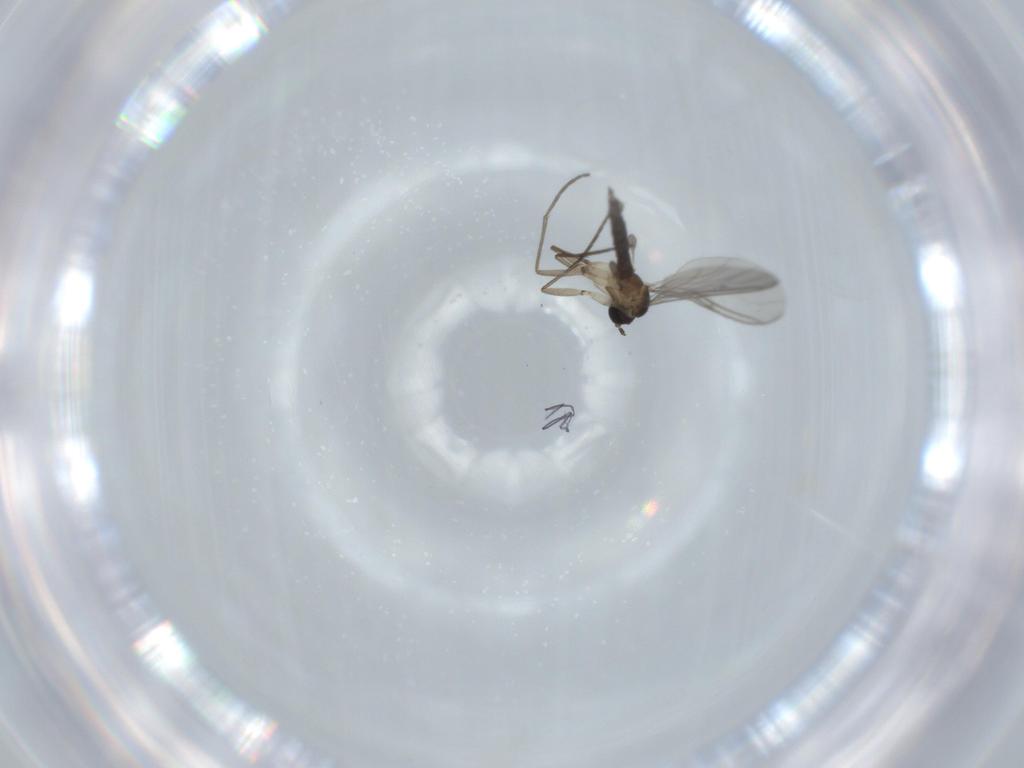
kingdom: Animalia
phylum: Arthropoda
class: Insecta
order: Diptera
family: Sciaridae
